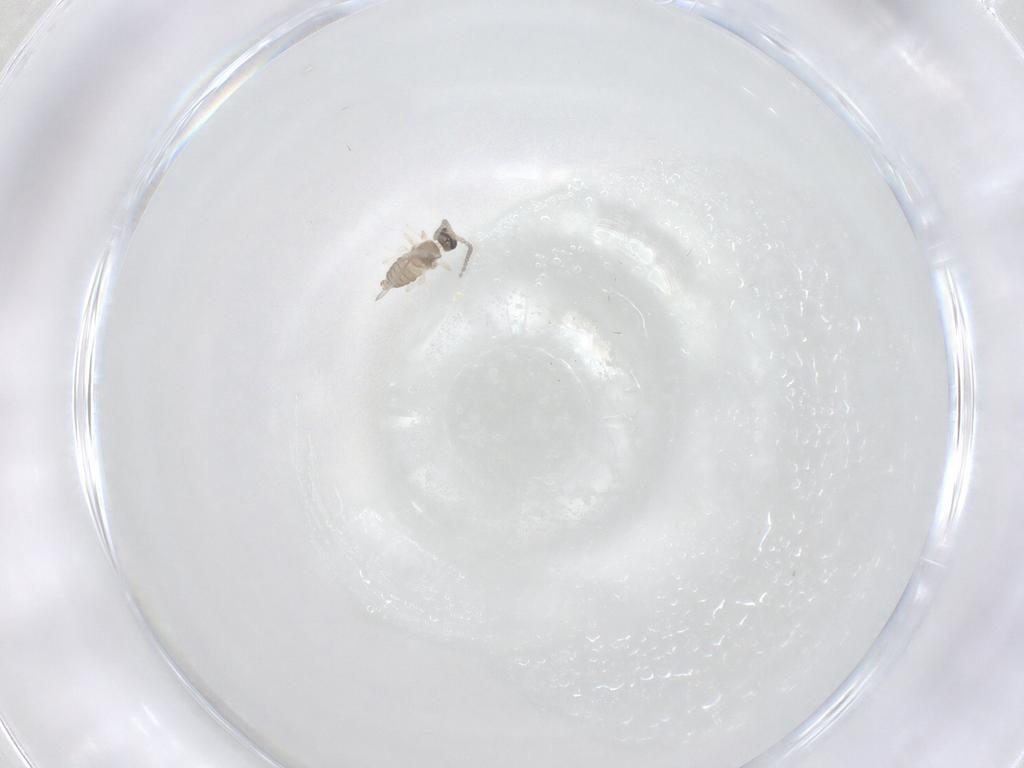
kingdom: Animalia
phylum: Arthropoda
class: Insecta
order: Diptera
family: Cecidomyiidae
